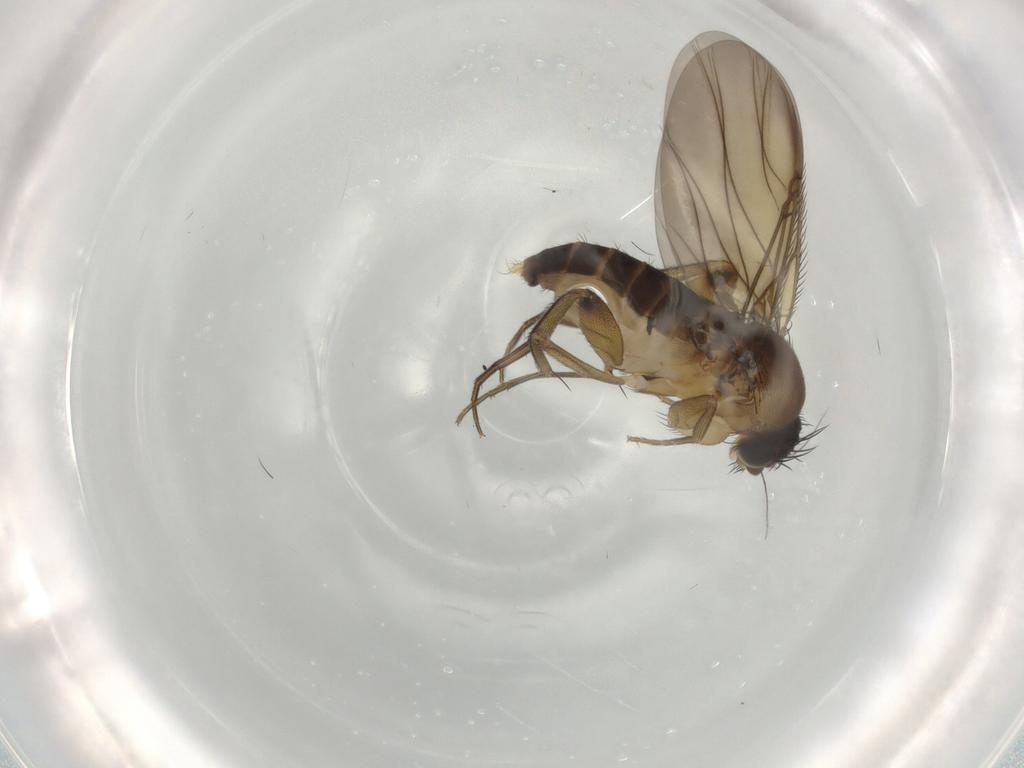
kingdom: Animalia
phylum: Arthropoda
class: Insecta
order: Diptera
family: Phoridae
